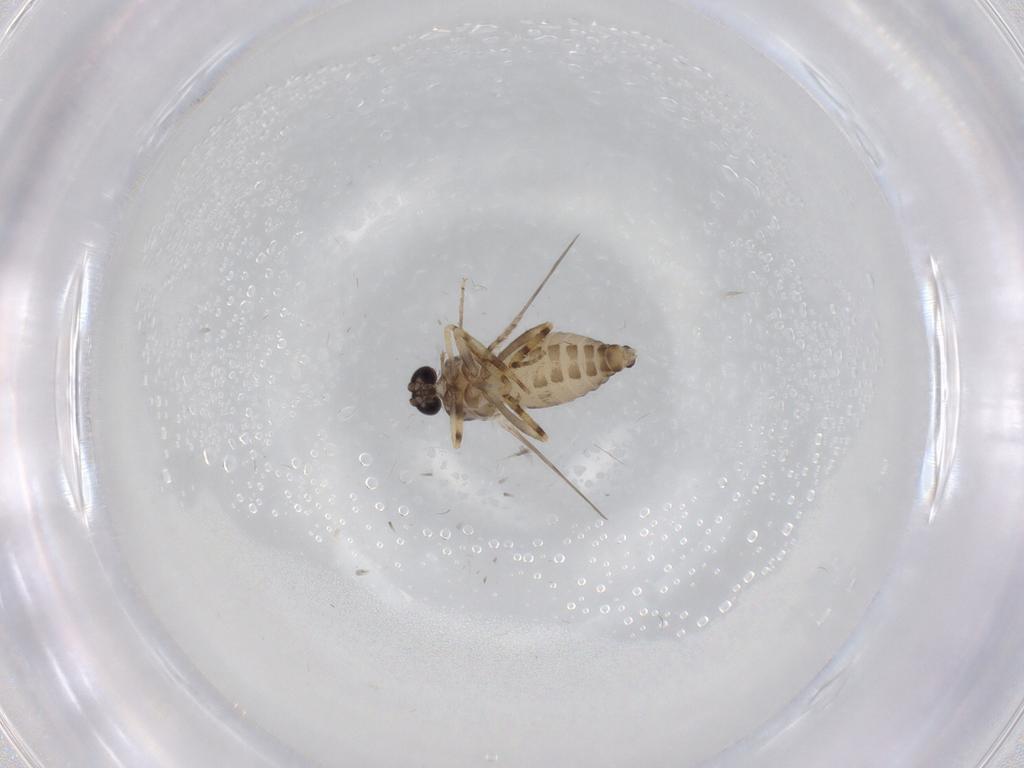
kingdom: Animalia
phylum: Arthropoda
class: Insecta
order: Diptera
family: Ceratopogonidae
